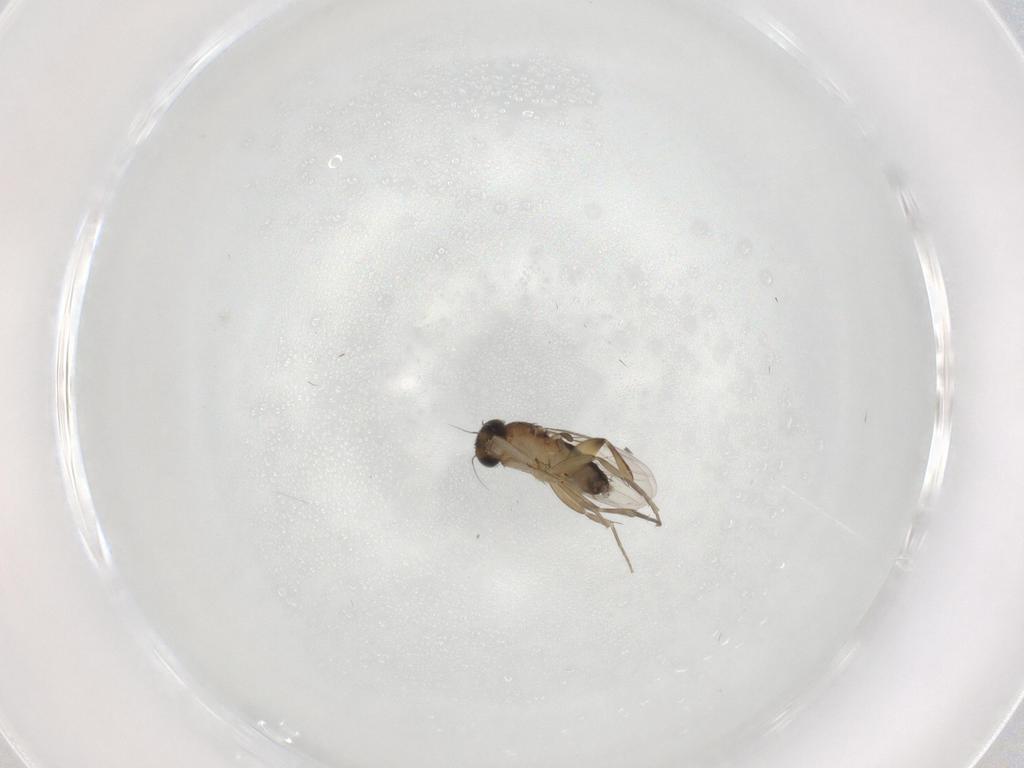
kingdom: Animalia
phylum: Arthropoda
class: Insecta
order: Diptera
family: Phoridae
